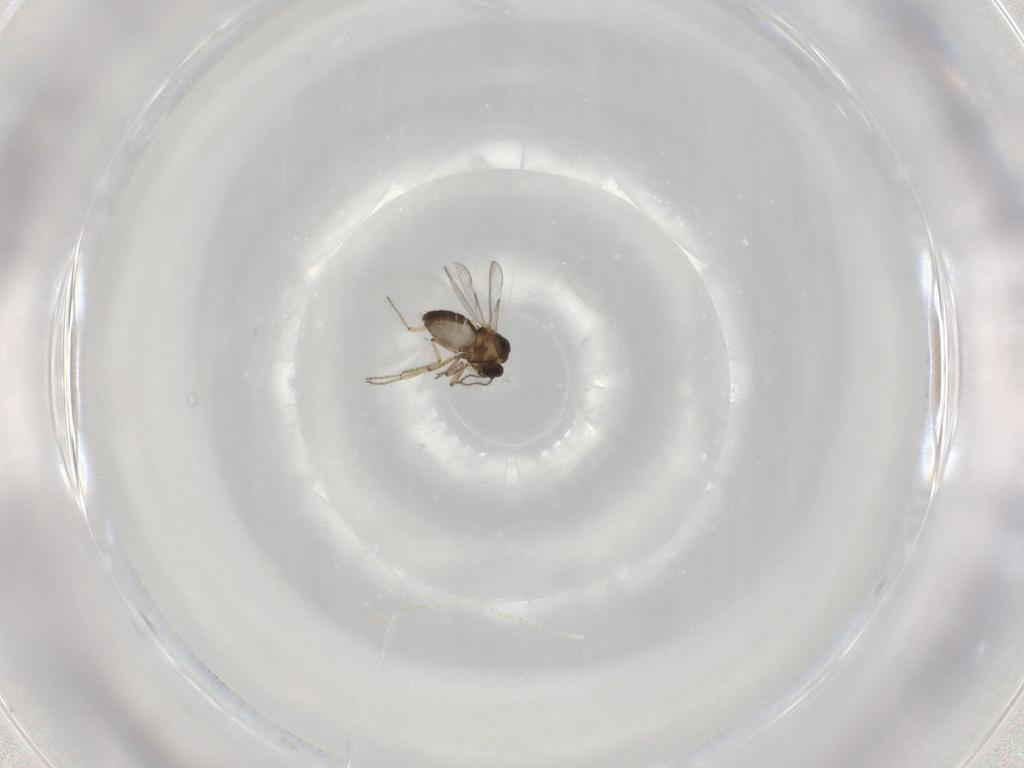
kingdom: Animalia
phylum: Arthropoda
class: Insecta
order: Diptera
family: Ceratopogonidae
